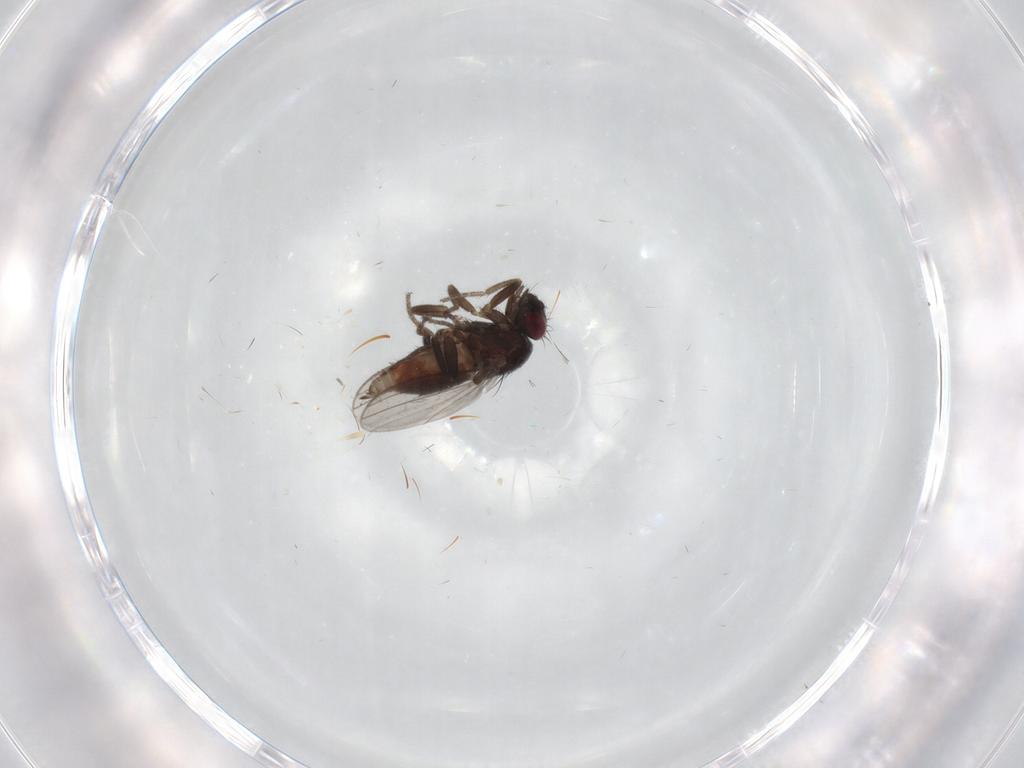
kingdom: Animalia
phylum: Arthropoda
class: Insecta
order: Diptera
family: Milichiidae
